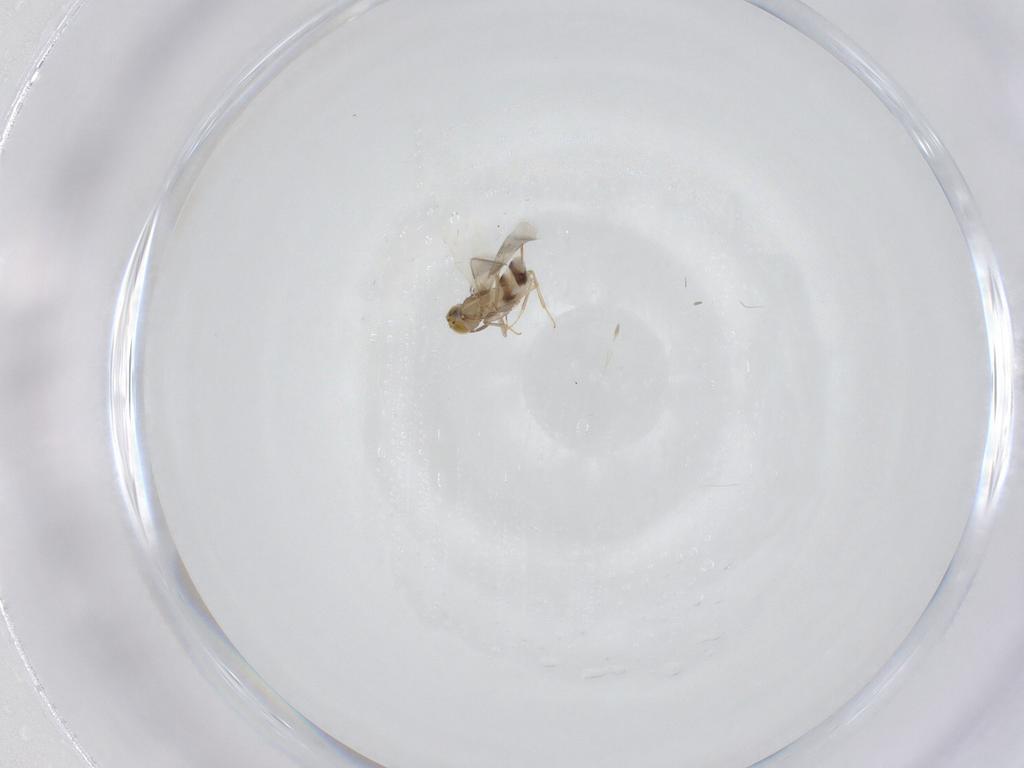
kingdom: Animalia
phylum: Arthropoda
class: Insecta
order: Hymenoptera
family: Aphelinidae
